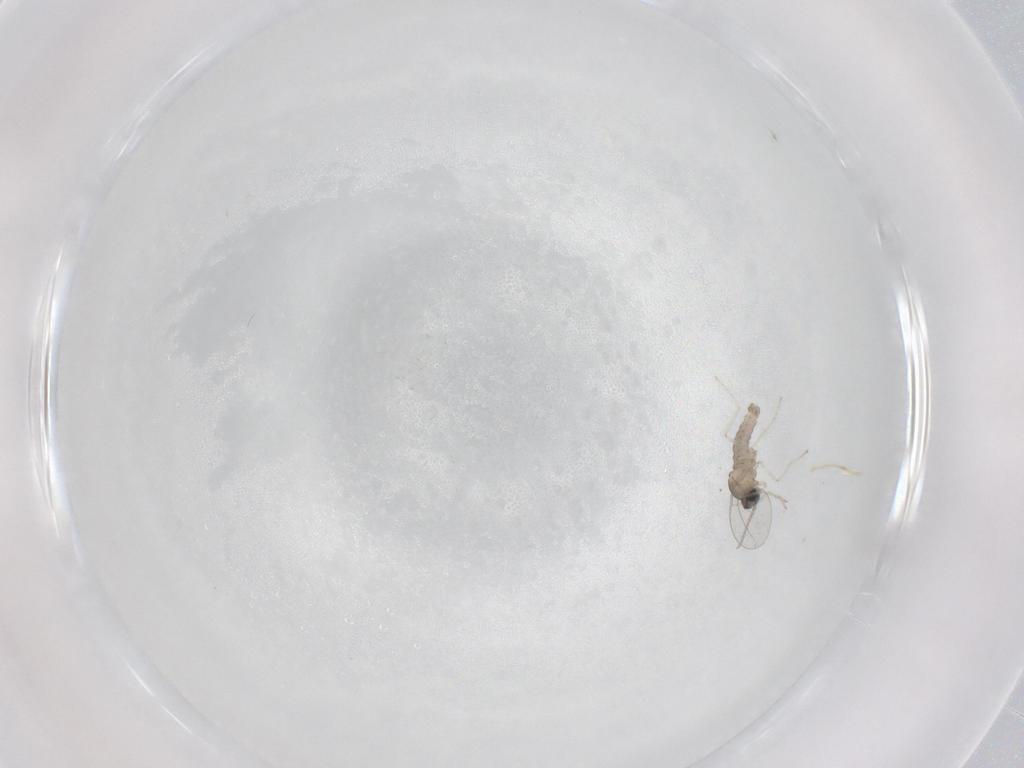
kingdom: Animalia
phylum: Arthropoda
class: Insecta
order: Diptera
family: Cecidomyiidae
